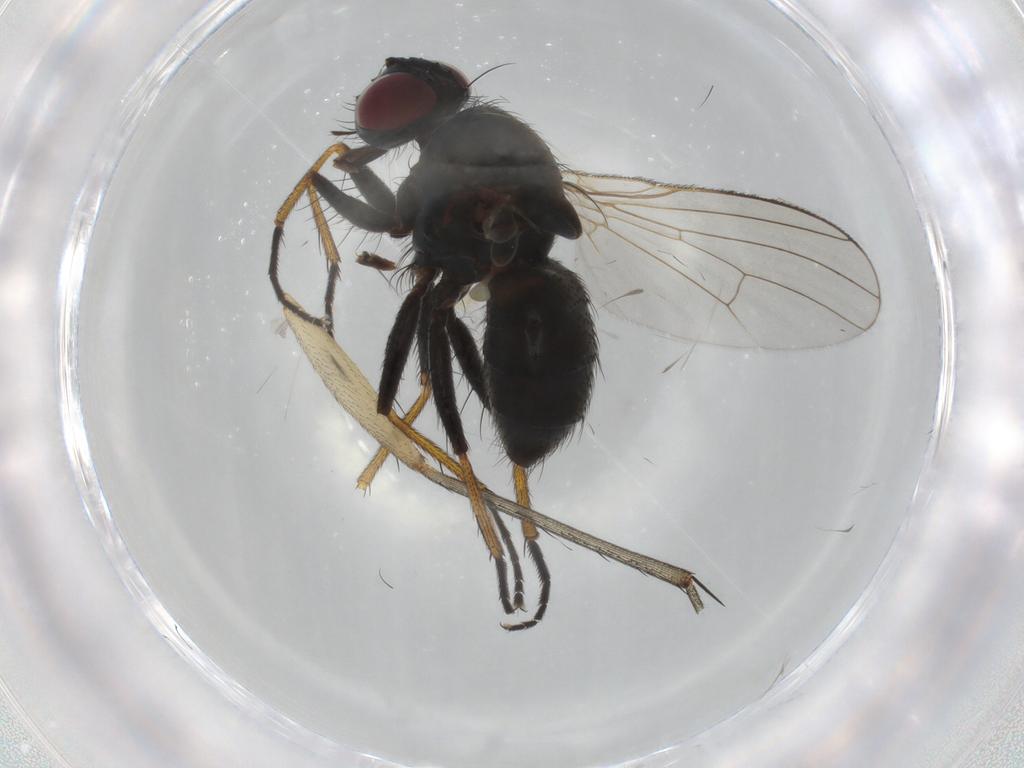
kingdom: Animalia
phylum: Arthropoda
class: Insecta
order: Diptera
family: Muscidae
